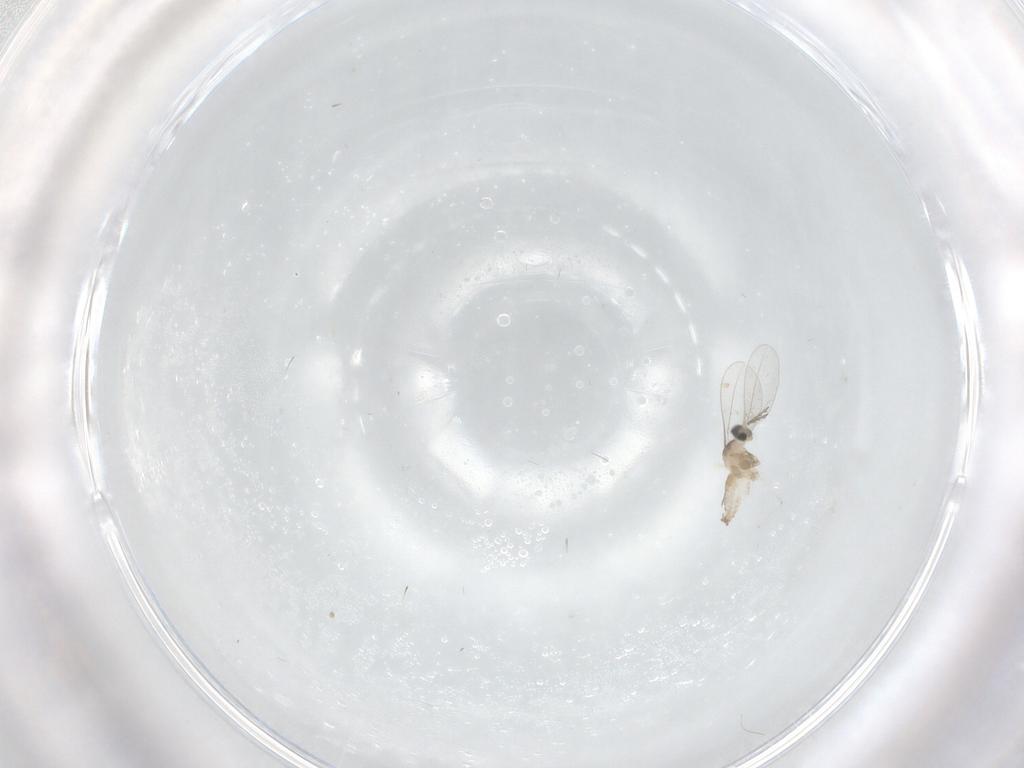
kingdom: Animalia
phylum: Arthropoda
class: Insecta
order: Diptera
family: Cecidomyiidae
